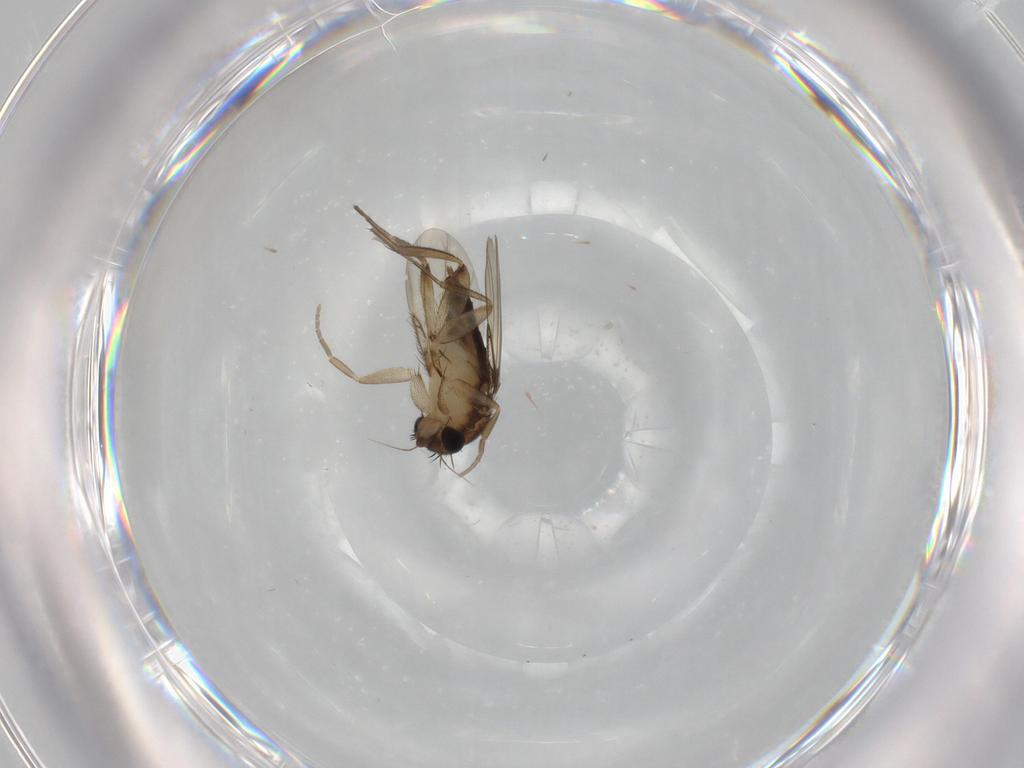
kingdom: Animalia
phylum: Arthropoda
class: Insecta
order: Diptera
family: Phoridae
